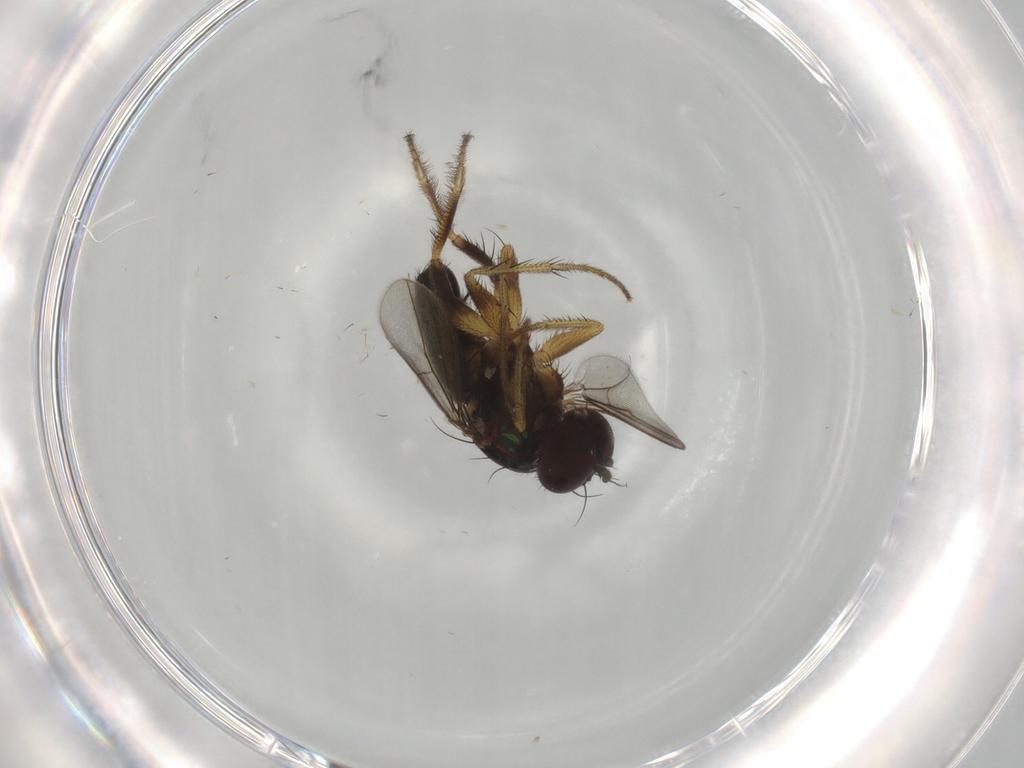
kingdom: Animalia
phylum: Arthropoda
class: Insecta
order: Diptera
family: Dolichopodidae
